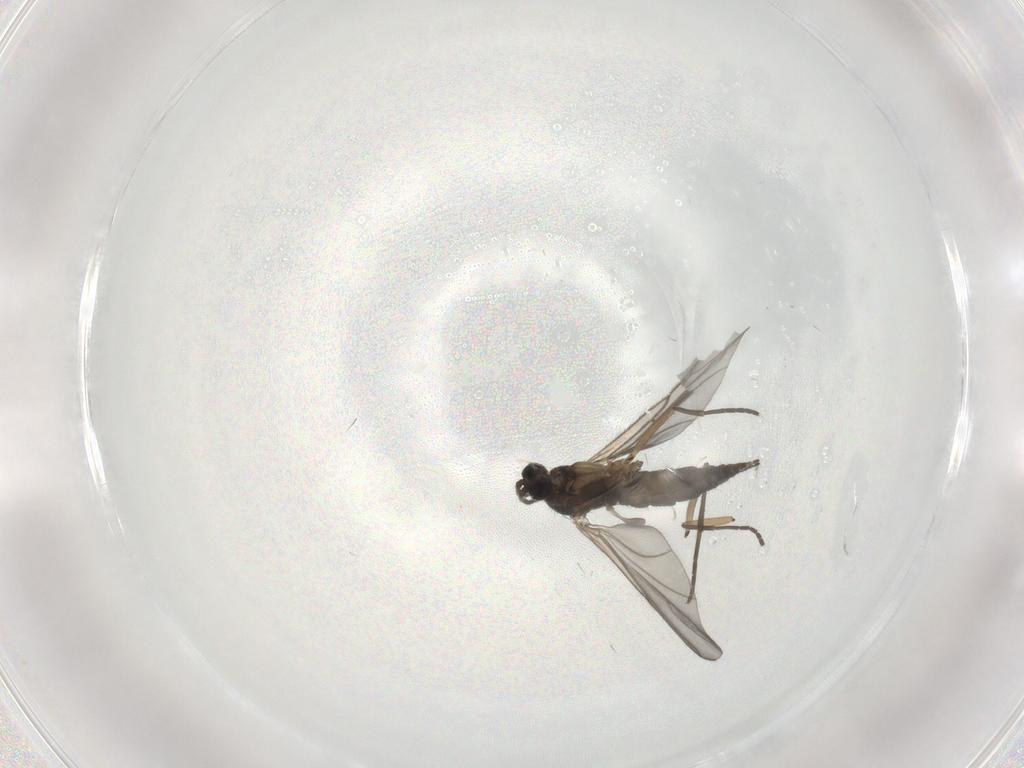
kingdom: Animalia
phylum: Arthropoda
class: Insecta
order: Diptera
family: Sciaridae
